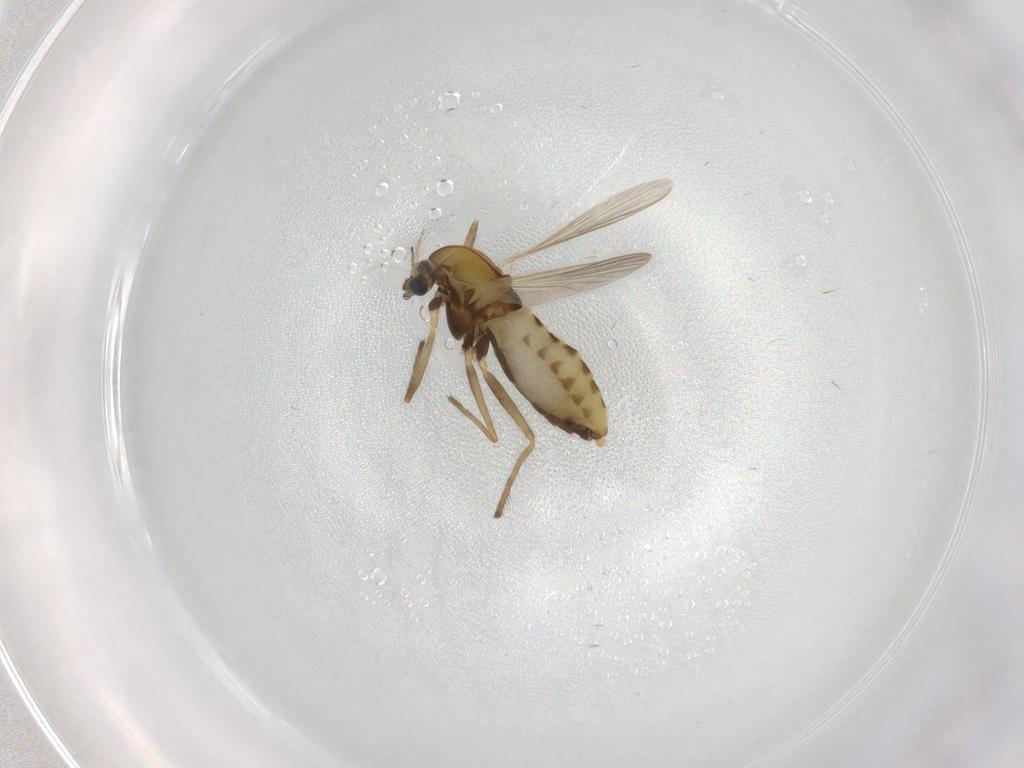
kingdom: Animalia
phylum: Arthropoda
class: Insecta
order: Diptera
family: Chironomidae
